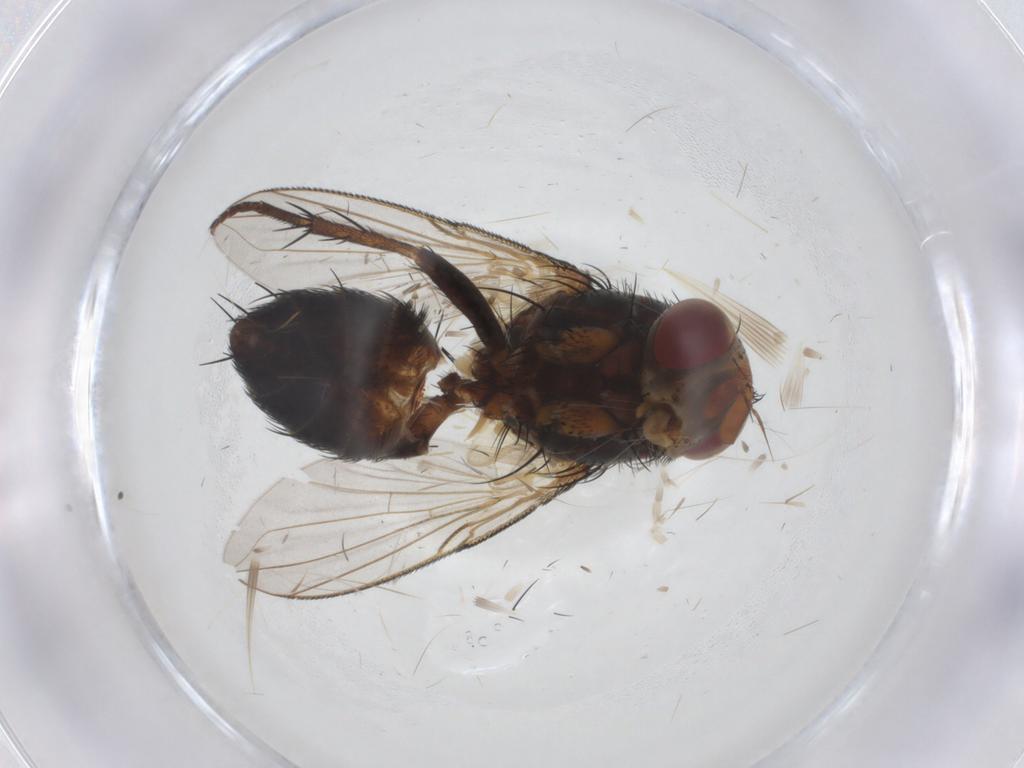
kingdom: Animalia
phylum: Arthropoda
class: Insecta
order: Diptera
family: Tachinidae
